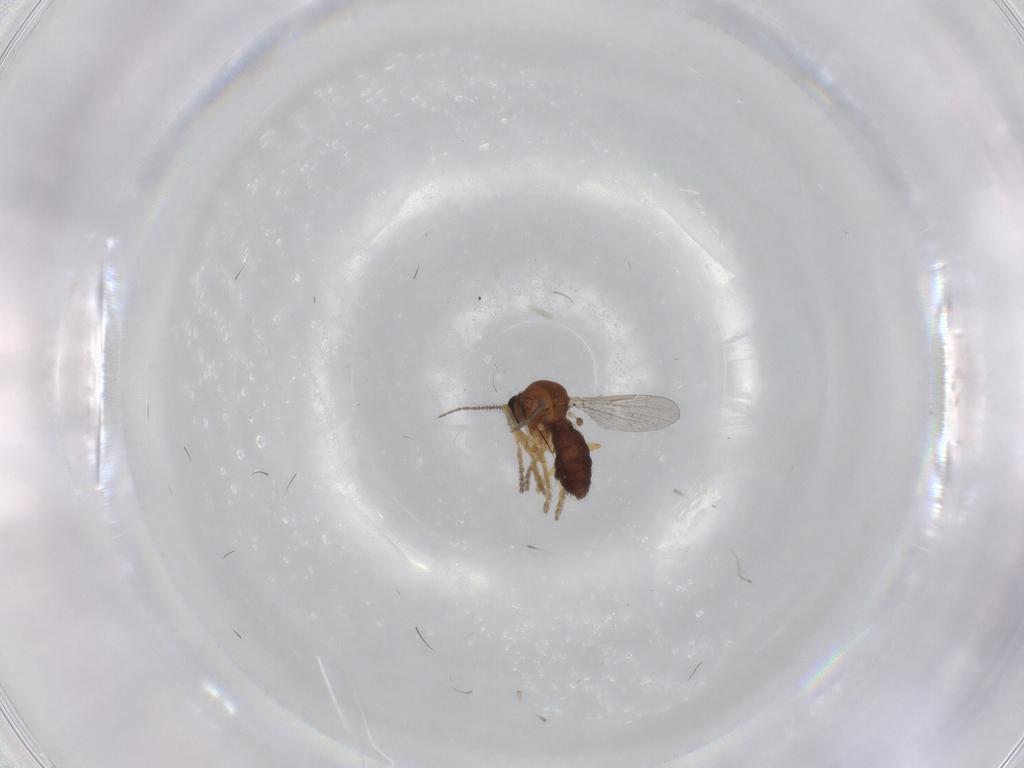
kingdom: Animalia
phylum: Arthropoda
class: Insecta
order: Diptera
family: Ceratopogonidae
